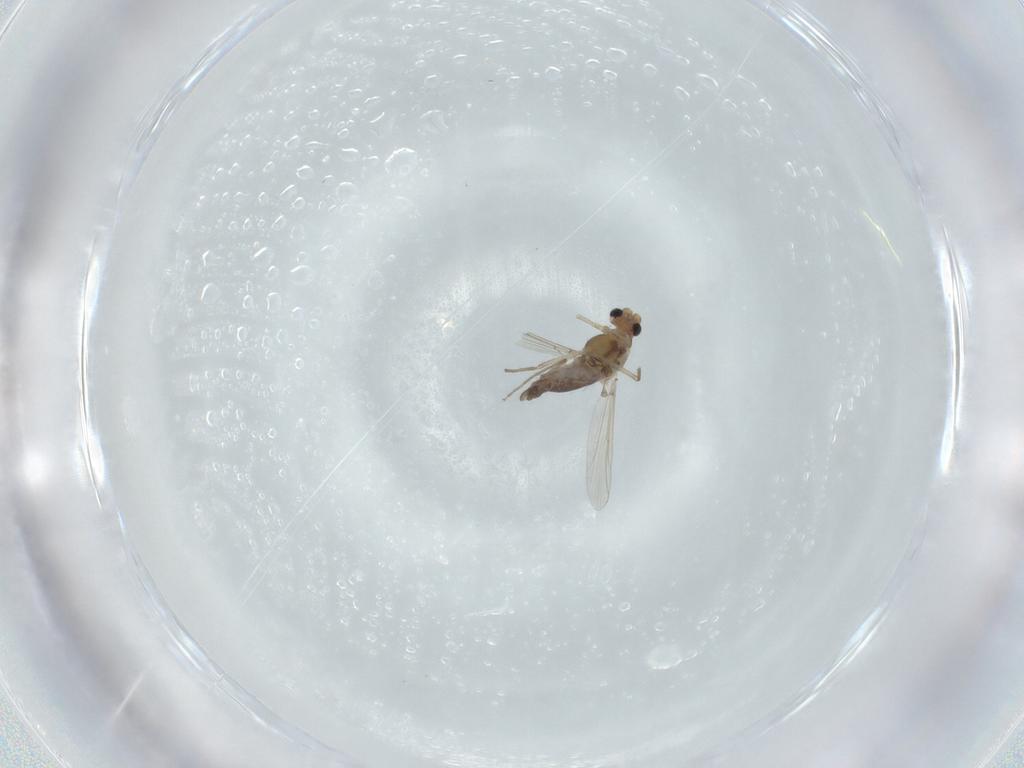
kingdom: Animalia
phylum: Arthropoda
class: Insecta
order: Diptera
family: Chironomidae
